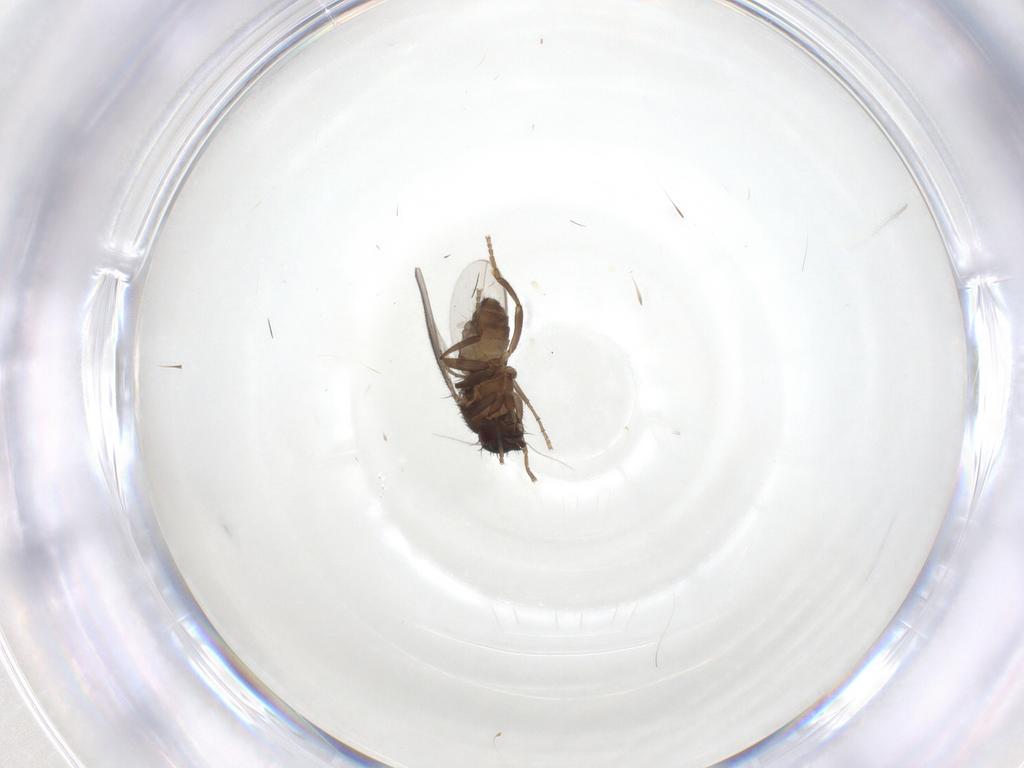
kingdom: Animalia
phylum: Arthropoda
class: Insecta
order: Diptera
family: Sphaeroceridae
